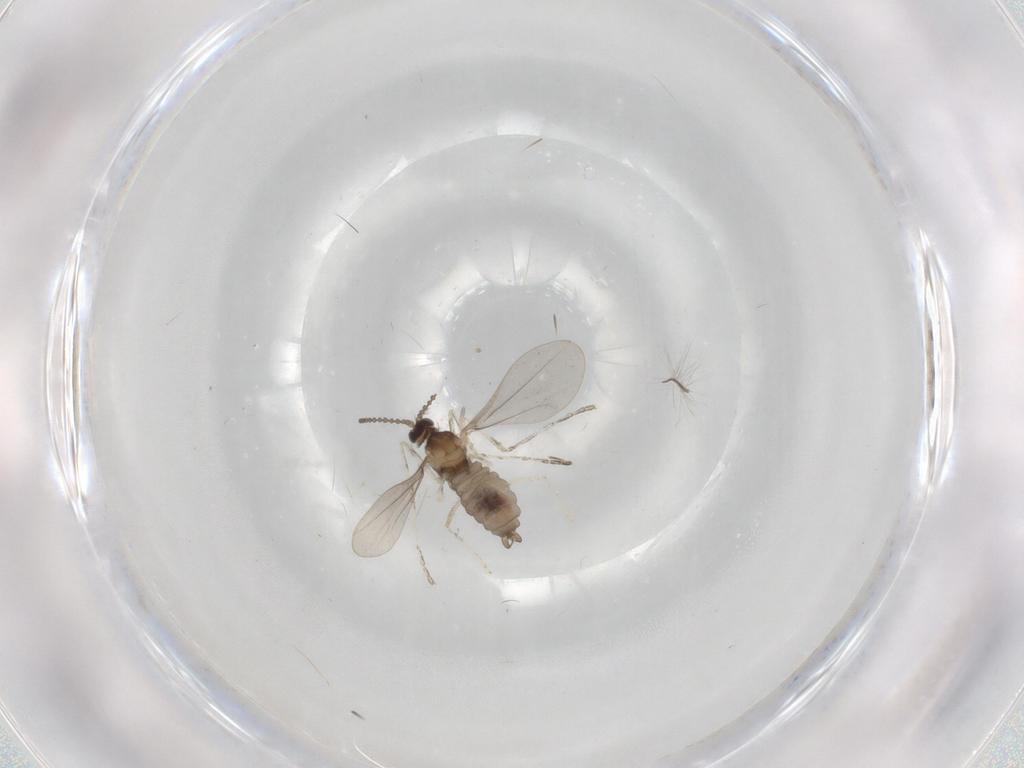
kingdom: Animalia
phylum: Arthropoda
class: Insecta
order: Diptera
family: Chironomidae
